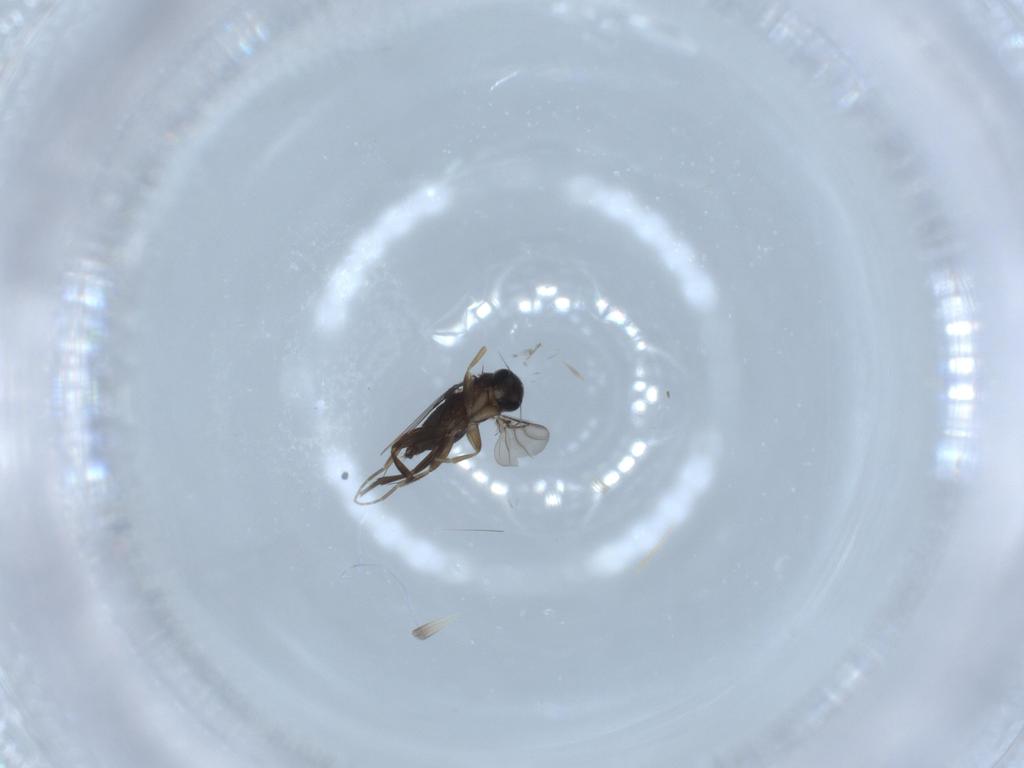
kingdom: Animalia
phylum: Arthropoda
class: Insecta
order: Diptera
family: Phoridae
